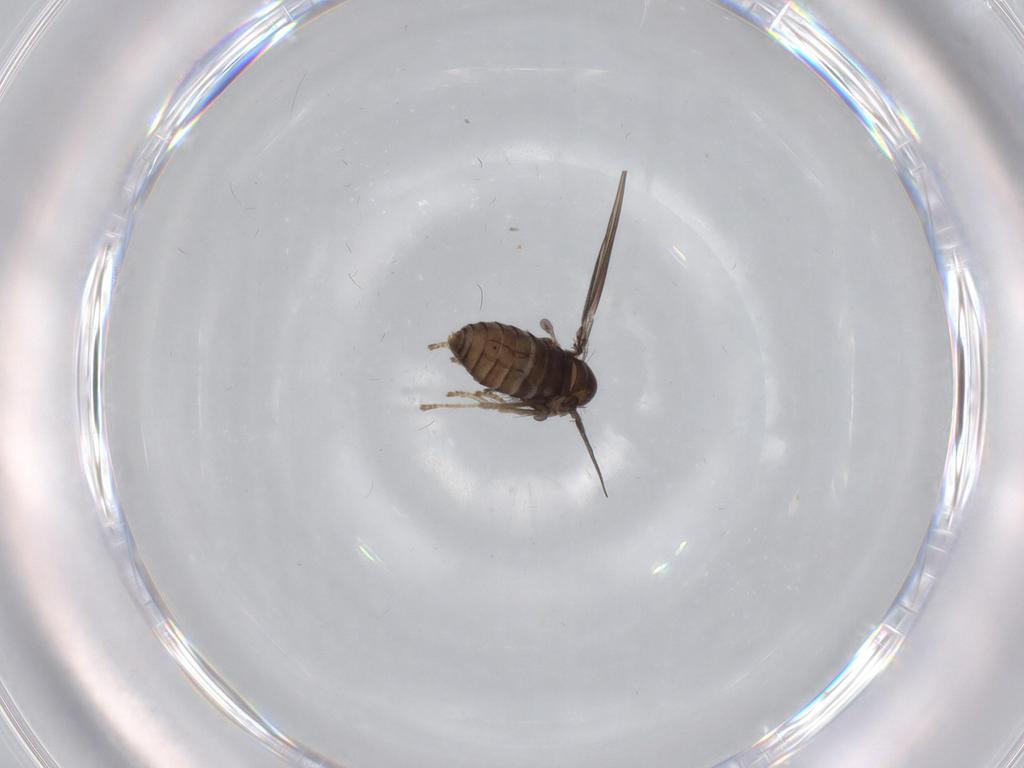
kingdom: Animalia
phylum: Arthropoda
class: Insecta
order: Diptera
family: Psychodidae
